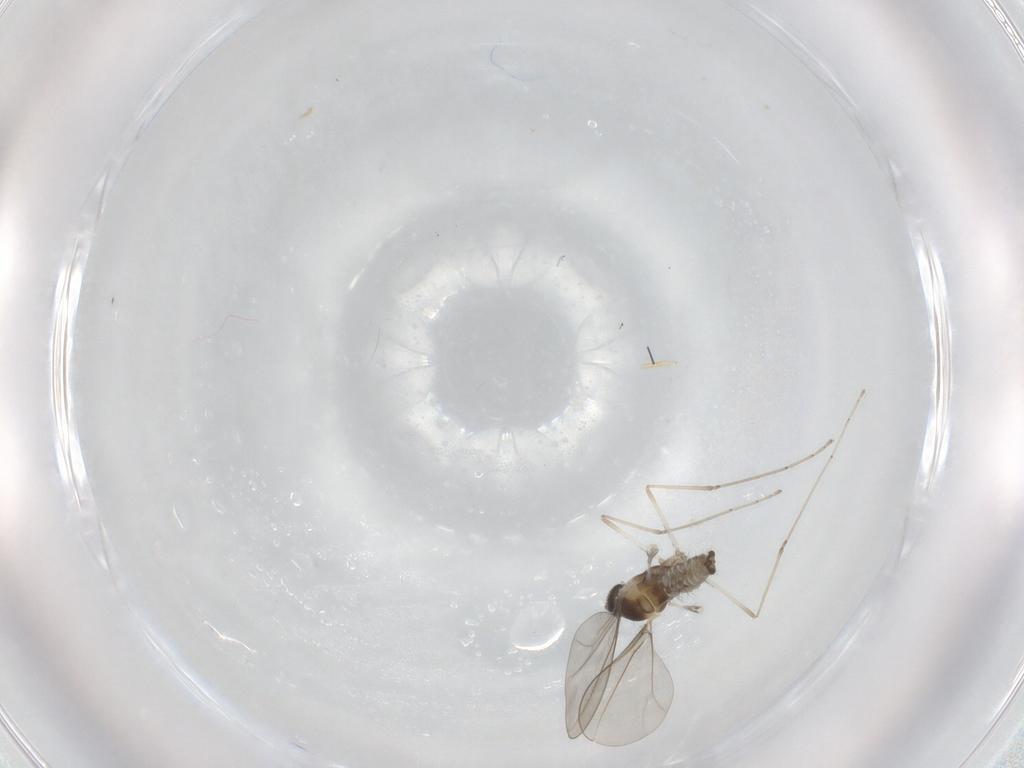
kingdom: Animalia
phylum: Arthropoda
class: Insecta
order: Diptera
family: Cecidomyiidae
